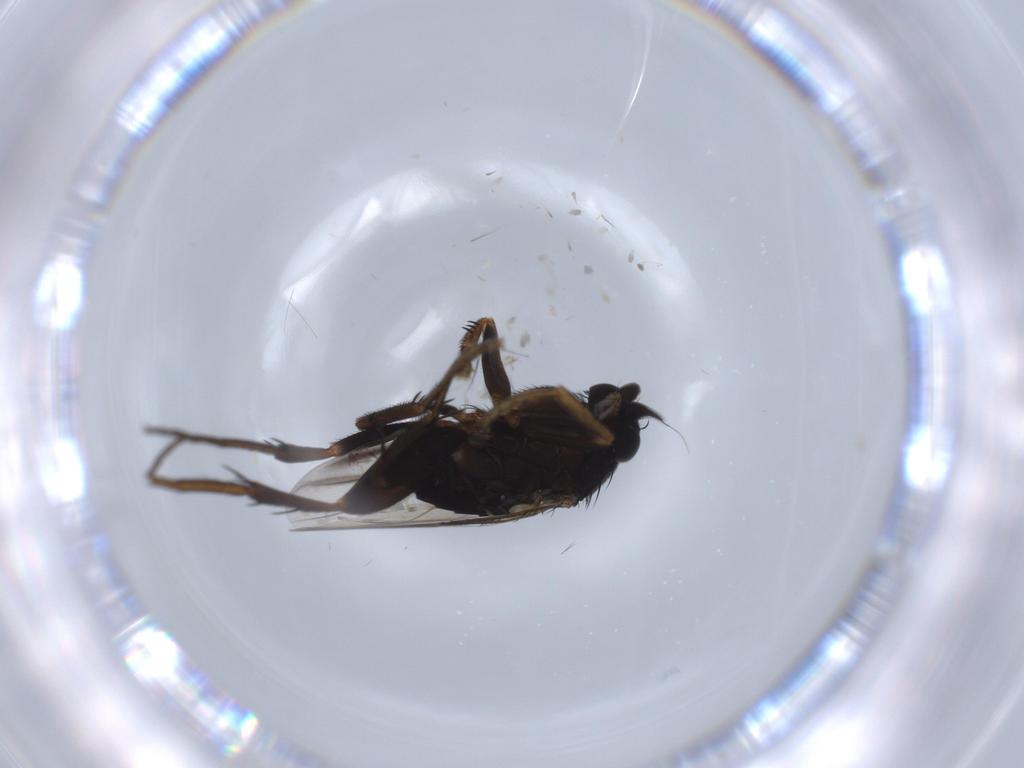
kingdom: Animalia
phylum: Arthropoda
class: Insecta
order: Diptera
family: Phoridae
